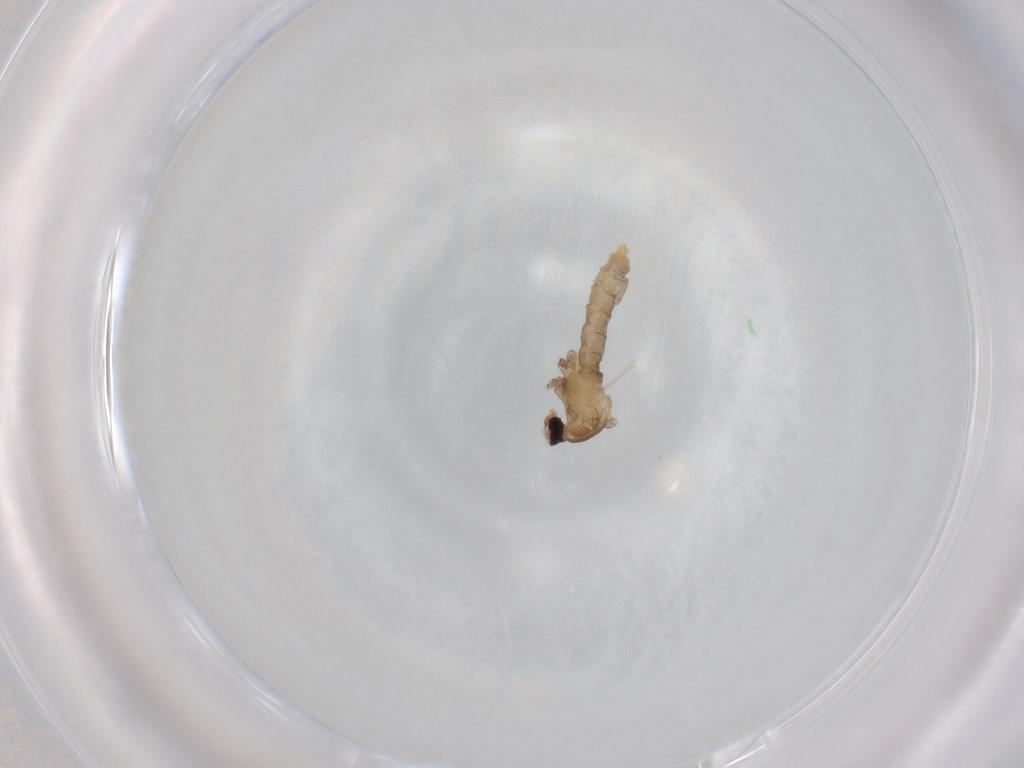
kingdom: Animalia
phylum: Arthropoda
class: Insecta
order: Diptera
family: Cecidomyiidae
